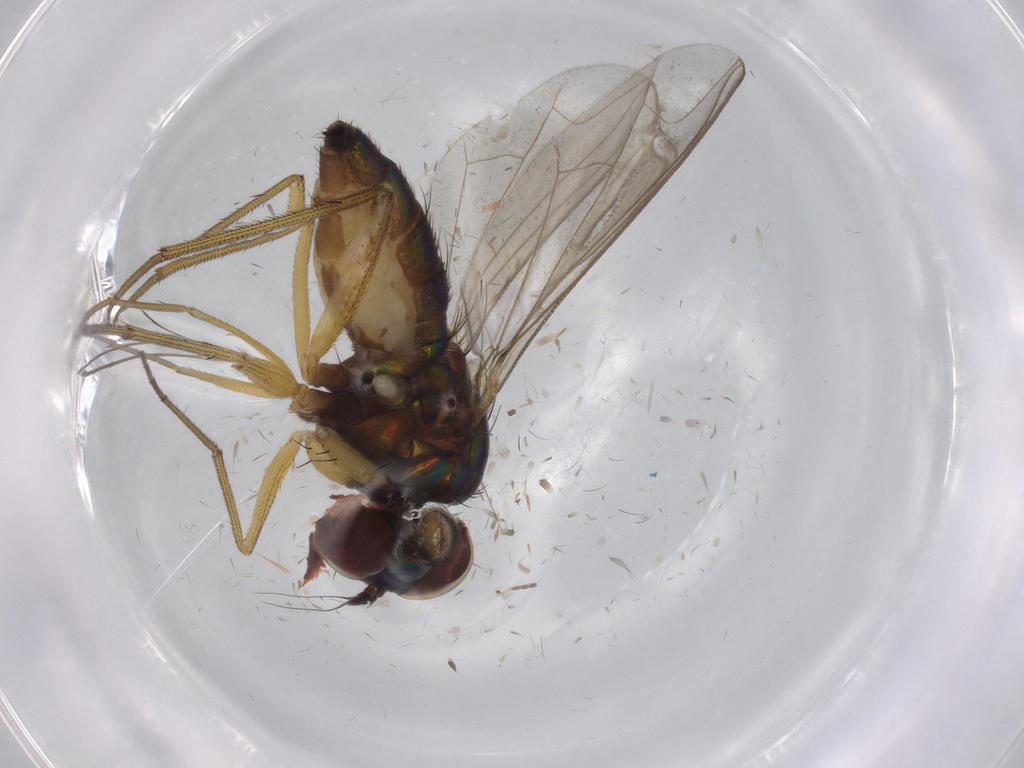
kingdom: Animalia
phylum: Arthropoda
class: Insecta
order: Diptera
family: Dolichopodidae
